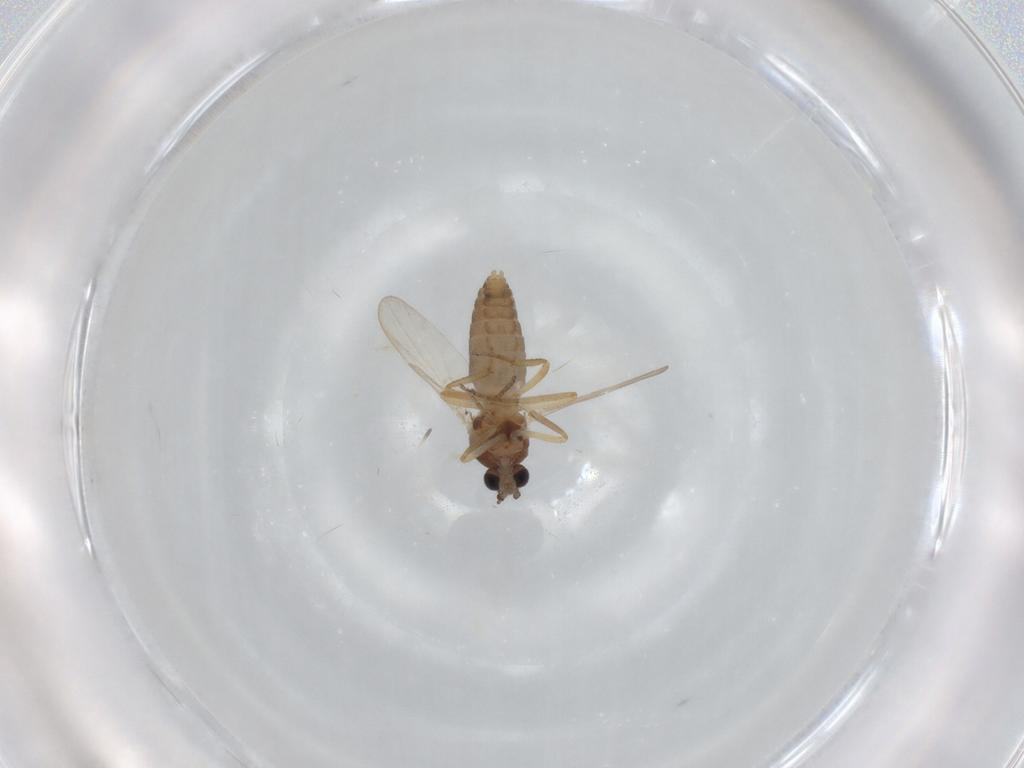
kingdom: Animalia
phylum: Arthropoda
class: Insecta
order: Diptera
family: Ceratopogonidae
